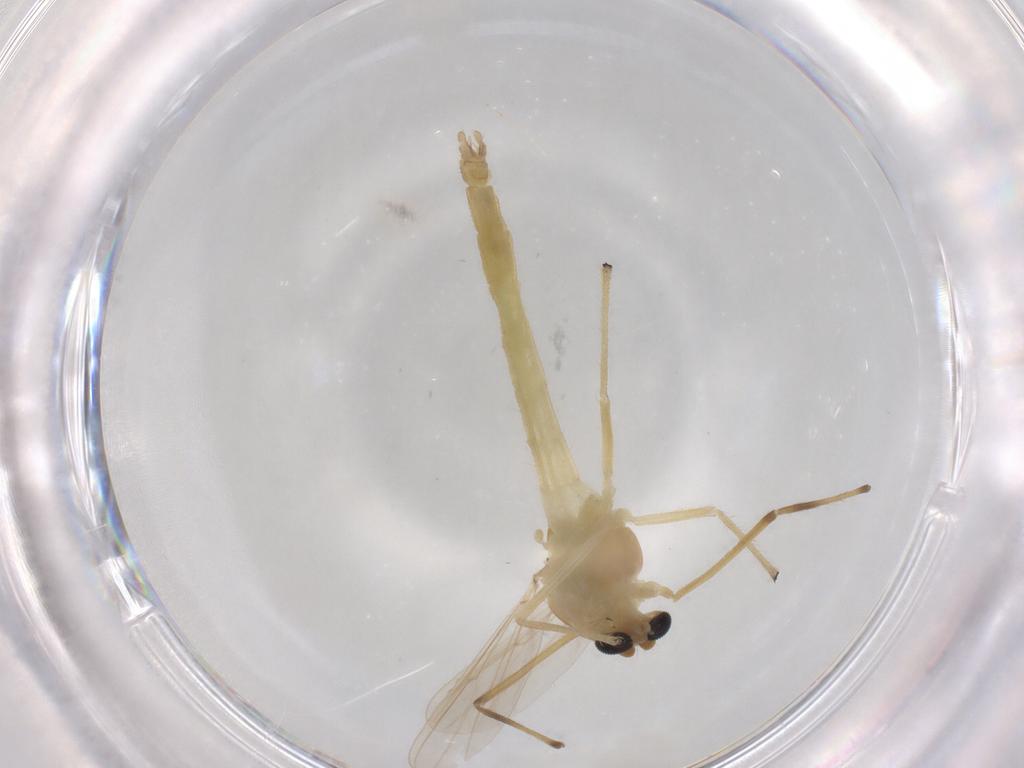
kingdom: Animalia
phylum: Arthropoda
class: Insecta
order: Diptera
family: Chironomidae
